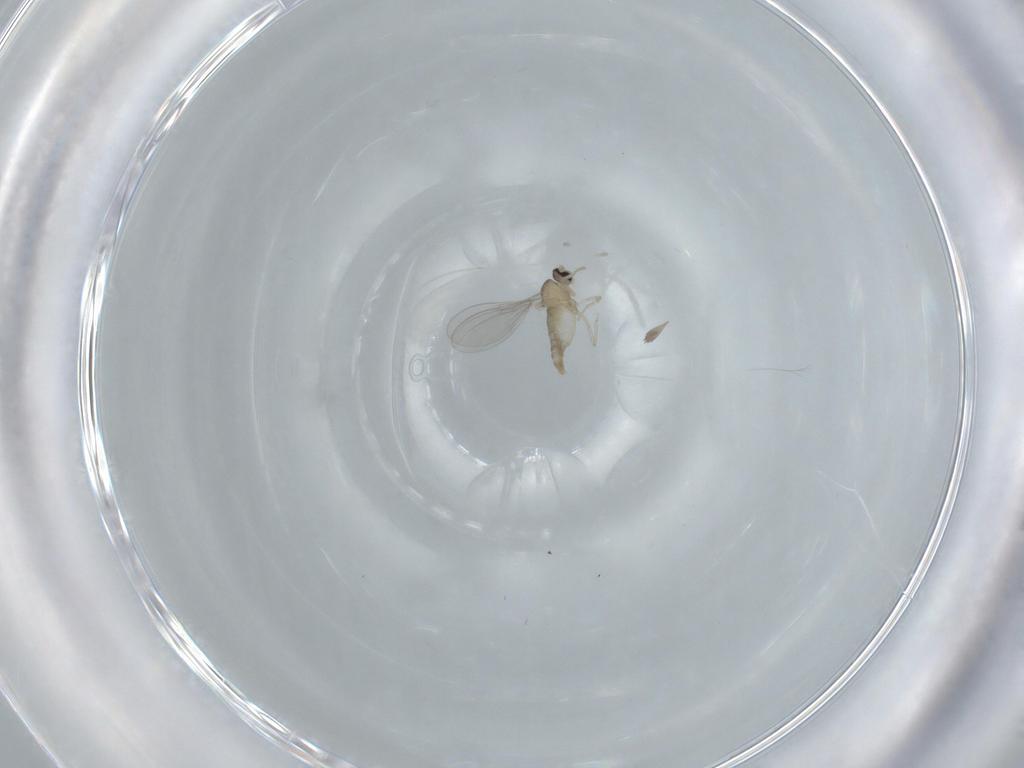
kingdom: Animalia
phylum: Arthropoda
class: Insecta
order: Diptera
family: Cecidomyiidae
